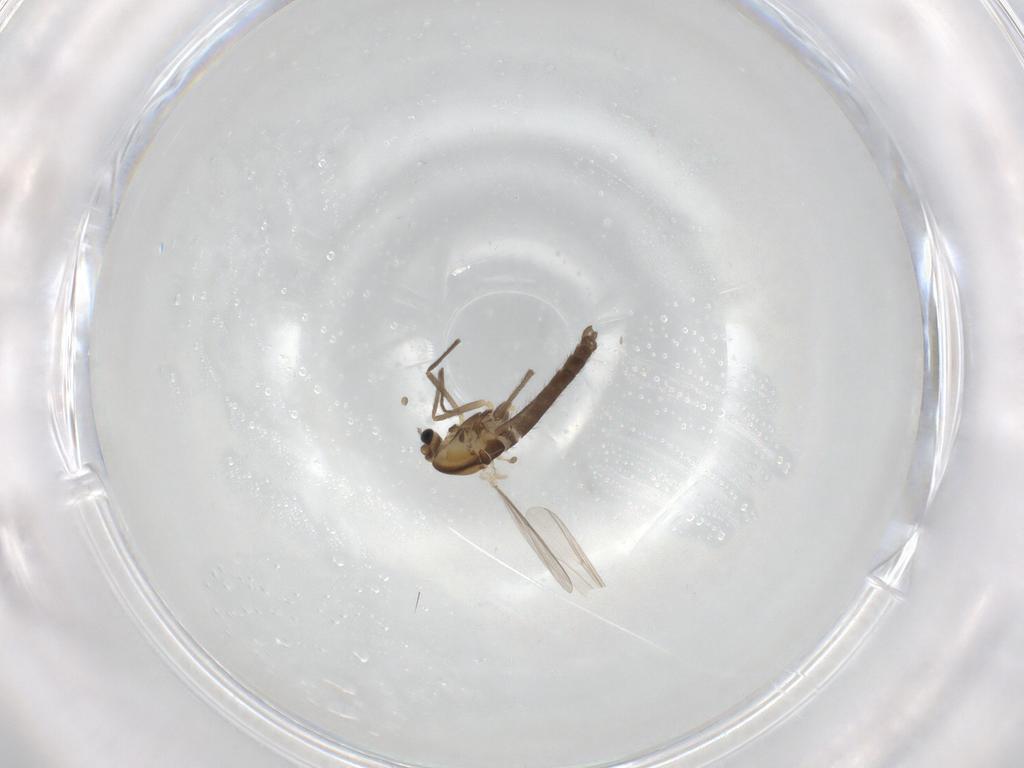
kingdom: Animalia
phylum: Arthropoda
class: Insecta
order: Diptera
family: Chironomidae
